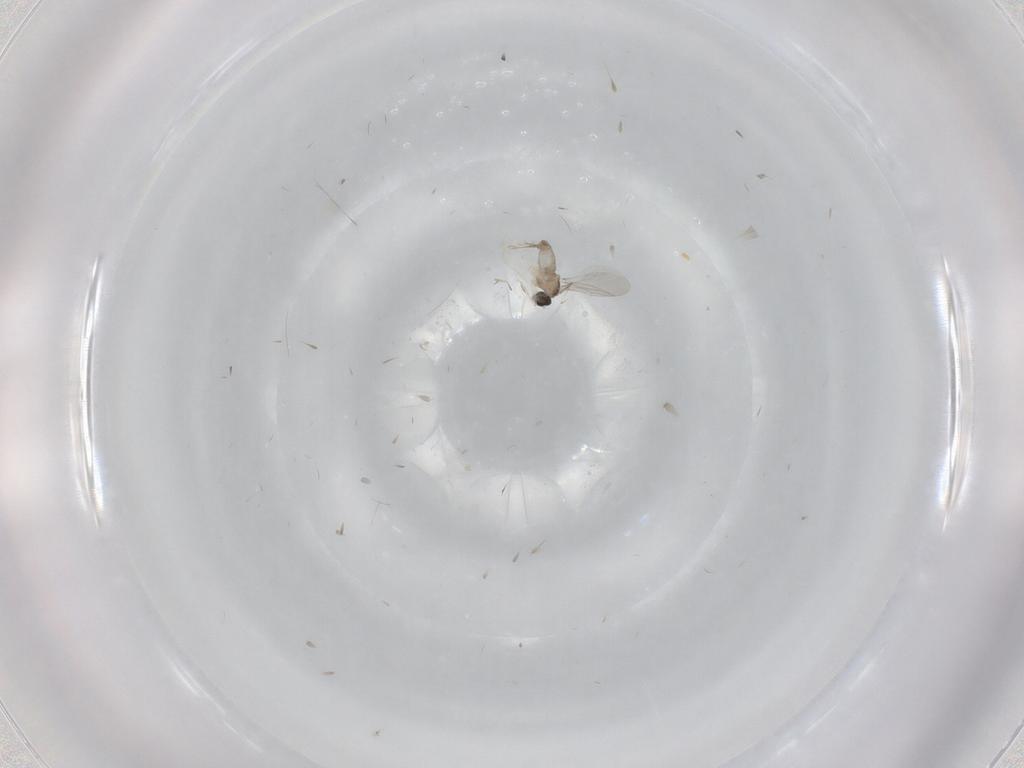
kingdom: Animalia
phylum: Arthropoda
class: Insecta
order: Diptera
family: Cecidomyiidae
